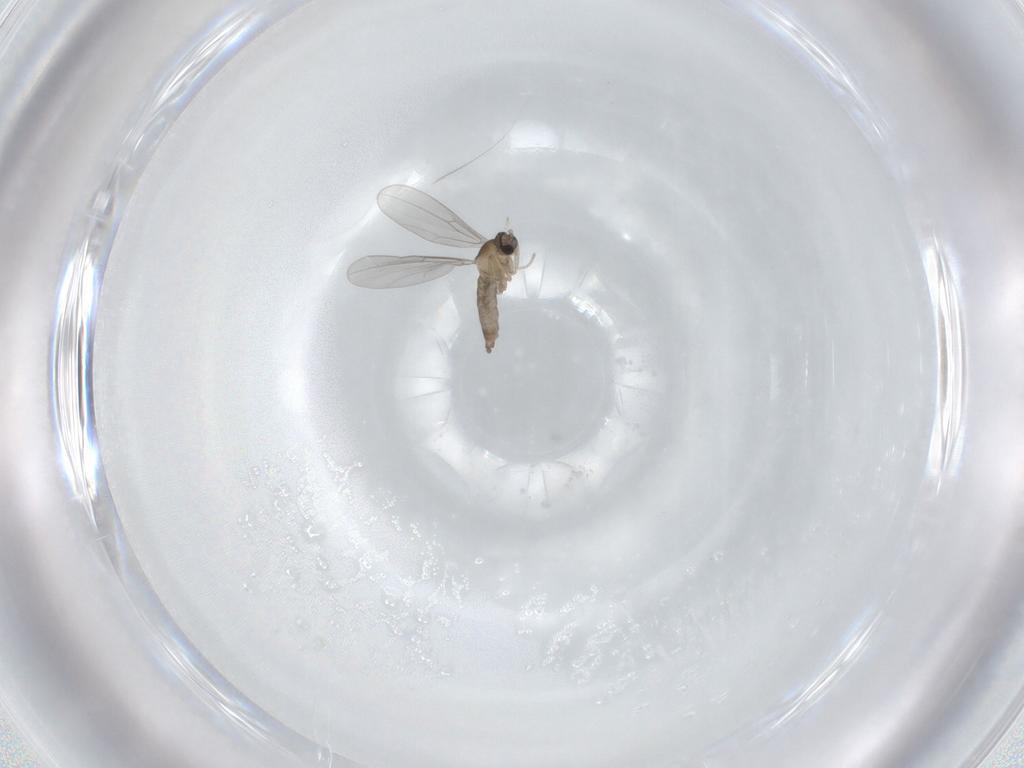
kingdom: Animalia
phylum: Arthropoda
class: Insecta
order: Diptera
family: Cecidomyiidae
